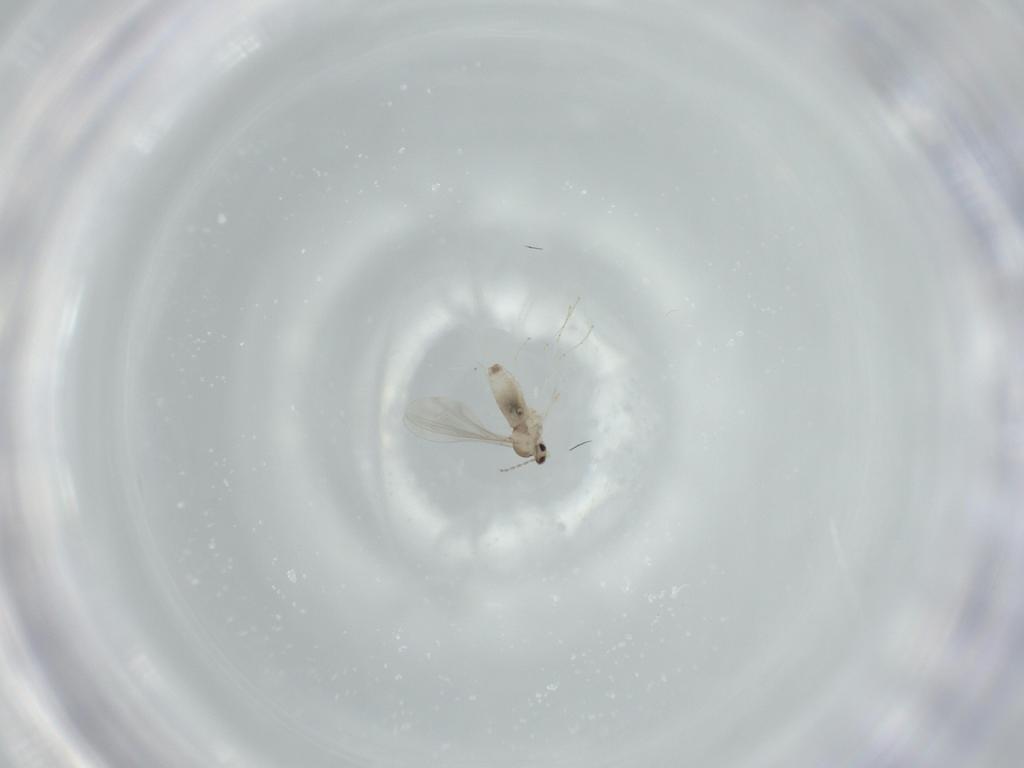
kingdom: Animalia
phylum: Arthropoda
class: Insecta
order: Diptera
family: Cecidomyiidae
